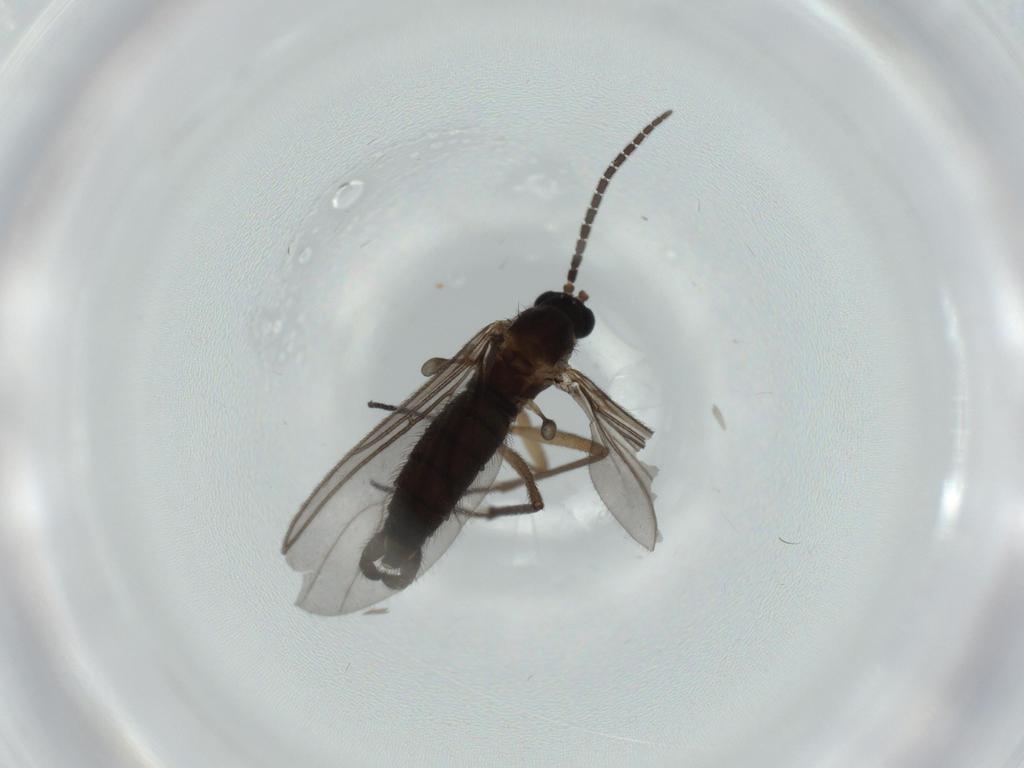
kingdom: Animalia
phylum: Arthropoda
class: Insecta
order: Diptera
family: Sciaridae
